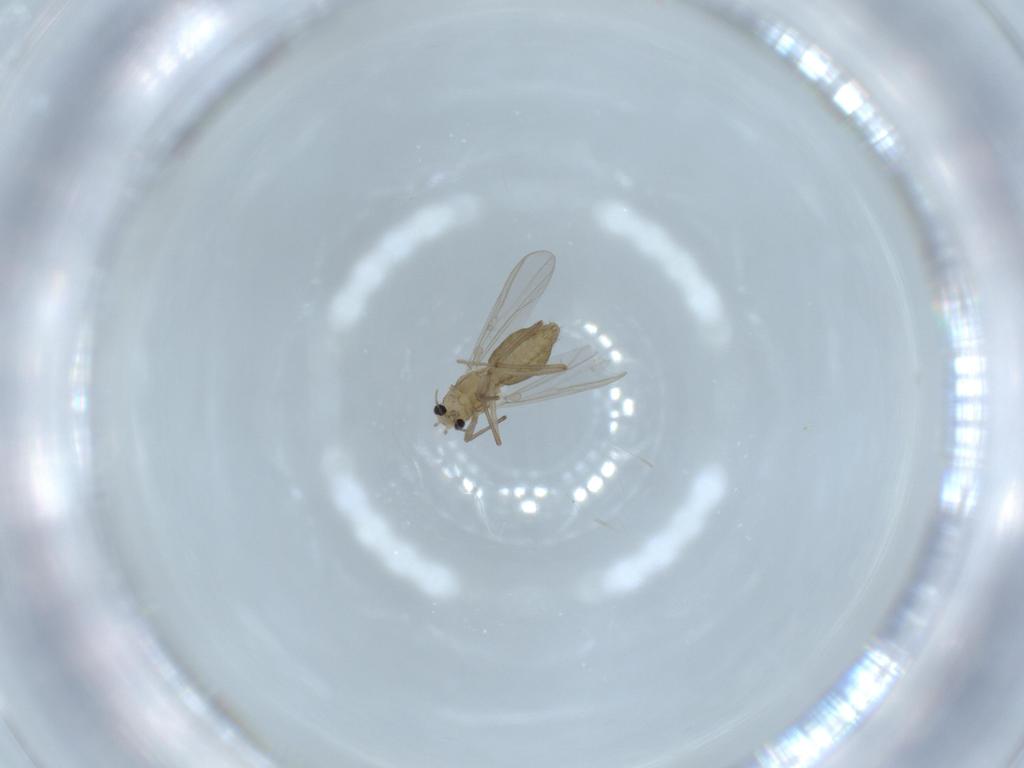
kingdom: Animalia
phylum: Arthropoda
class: Insecta
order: Diptera
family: Chironomidae
